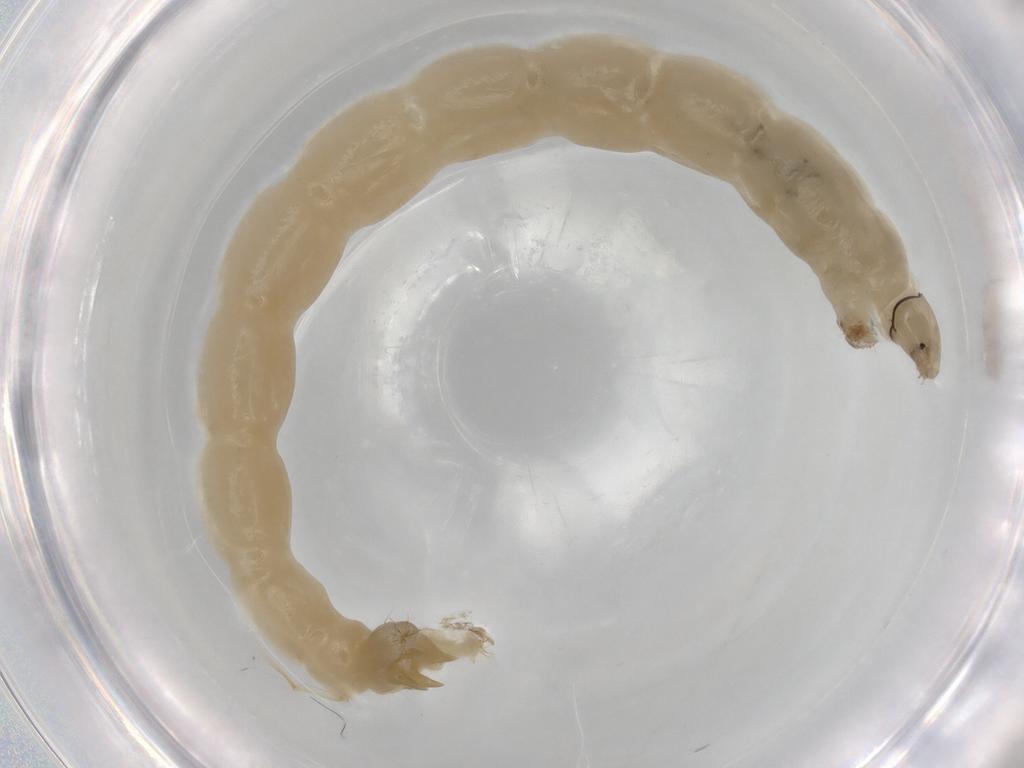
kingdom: Animalia
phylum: Arthropoda
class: Insecta
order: Diptera
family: Chironomidae
